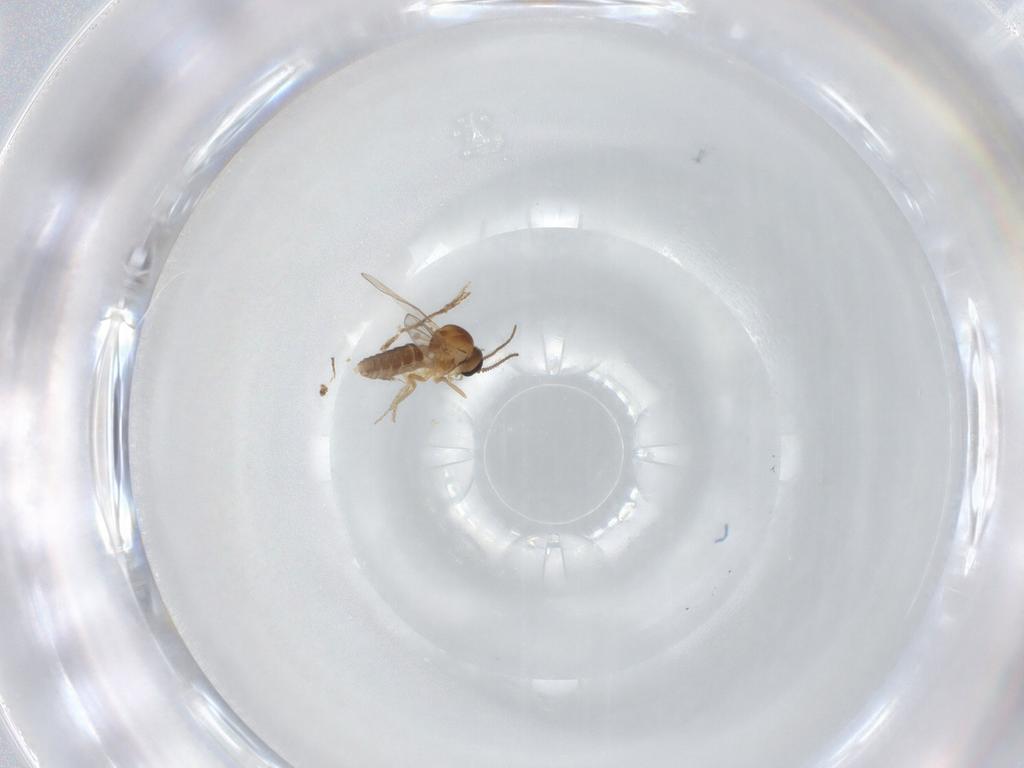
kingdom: Animalia
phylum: Arthropoda
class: Insecta
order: Diptera
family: Ceratopogonidae
